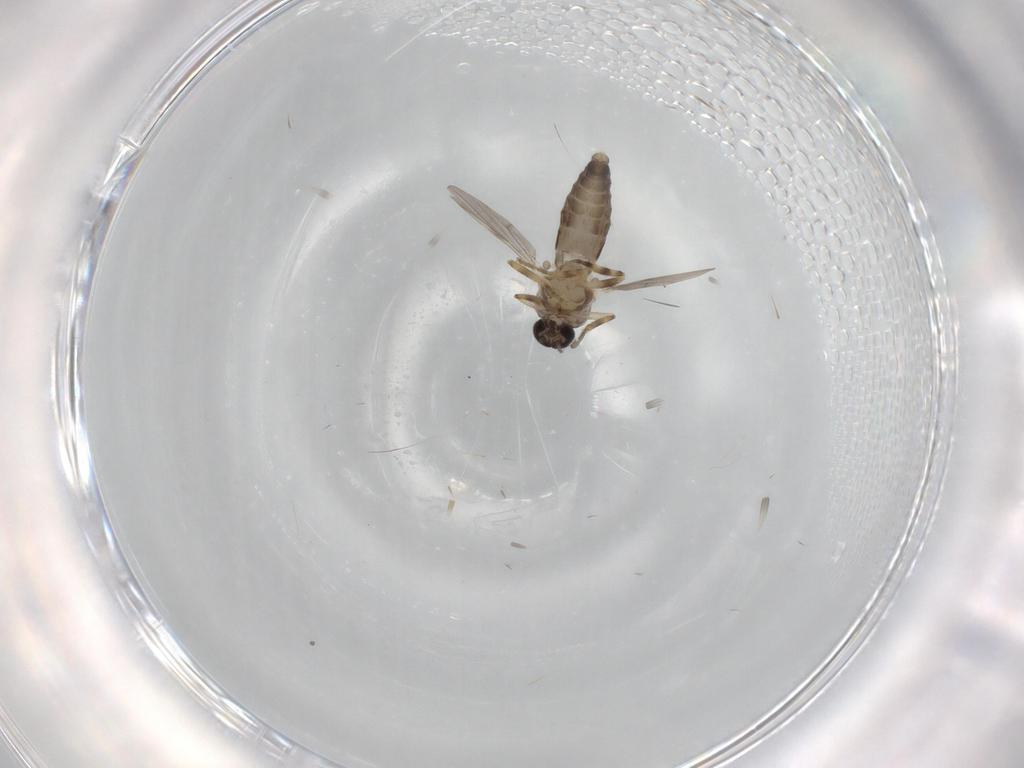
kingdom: Animalia
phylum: Arthropoda
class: Insecta
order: Diptera
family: Ceratopogonidae
